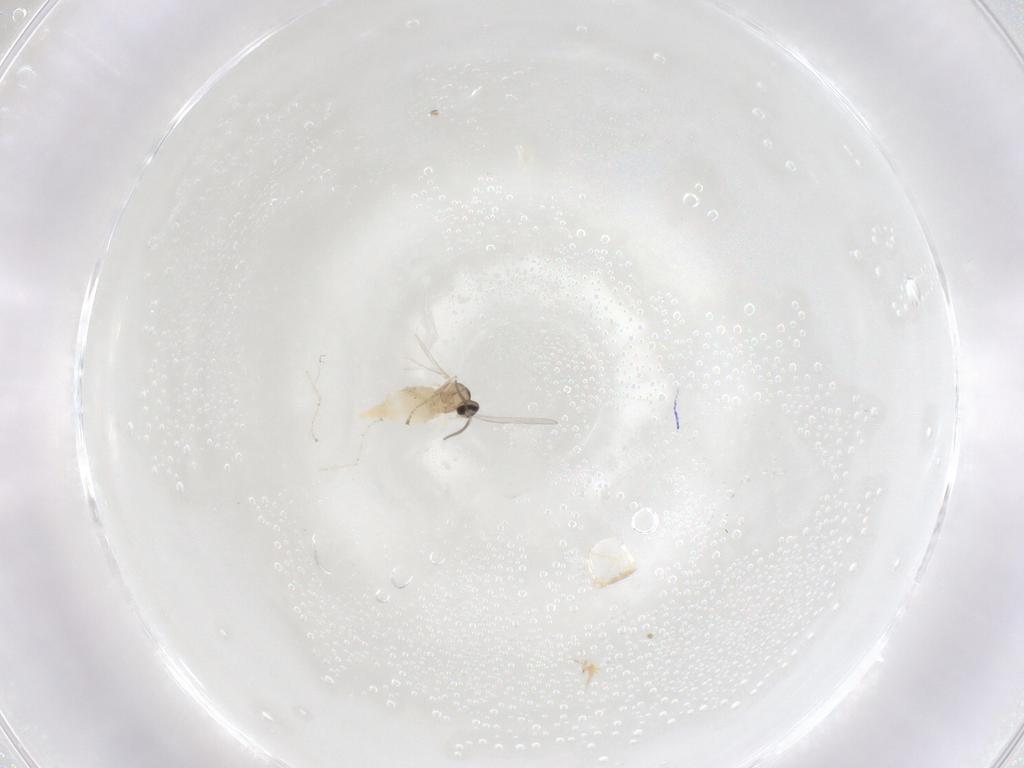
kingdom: Animalia
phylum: Arthropoda
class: Insecta
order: Diptera
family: Cecidomyiidae
